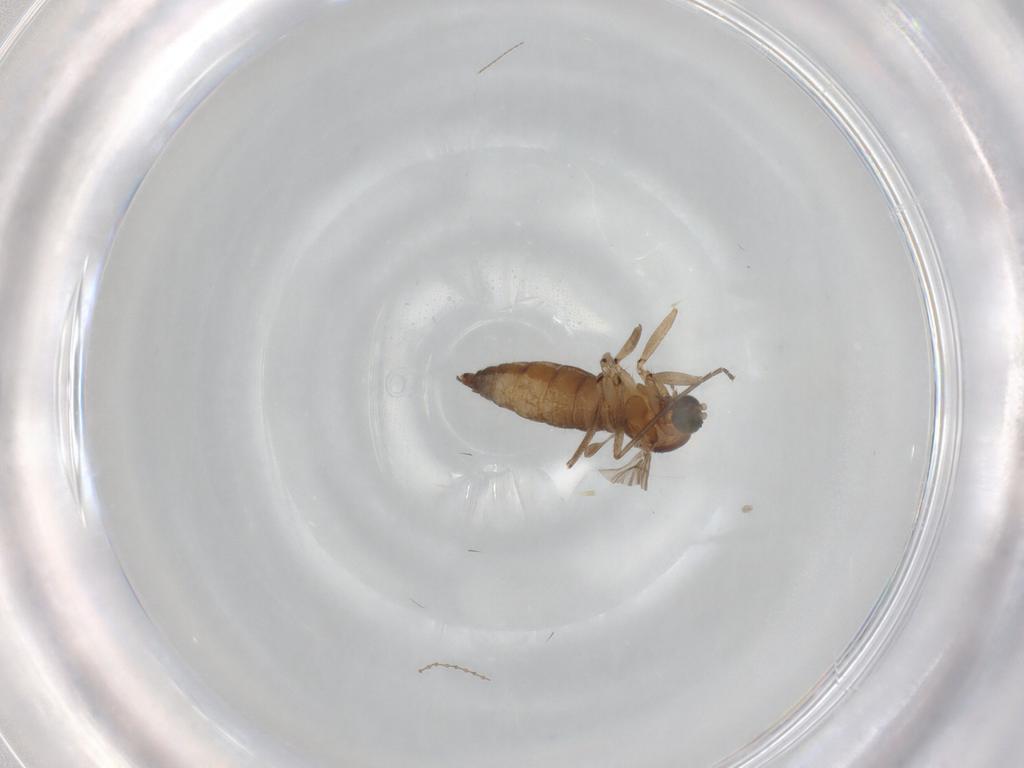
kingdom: Animalia
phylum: Arthropoda
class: Insecta
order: Diptera
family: Sciaridae
